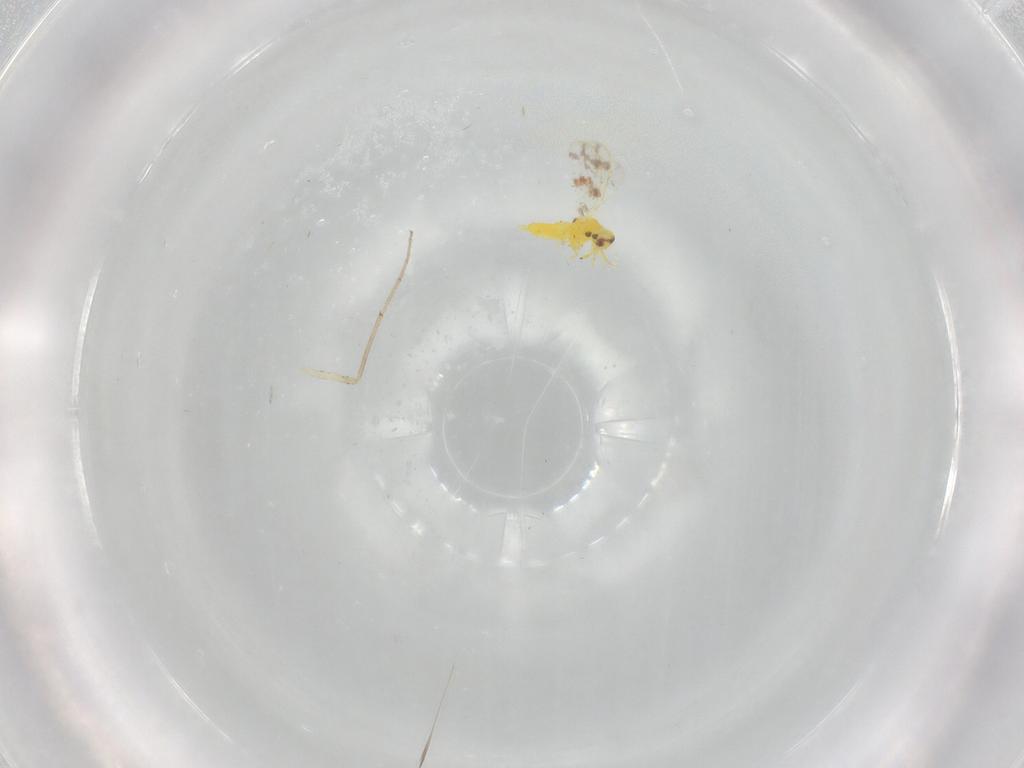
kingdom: Animalia
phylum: Arthropoda
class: Insecta
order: Hemiptera
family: Aleyrodidae
